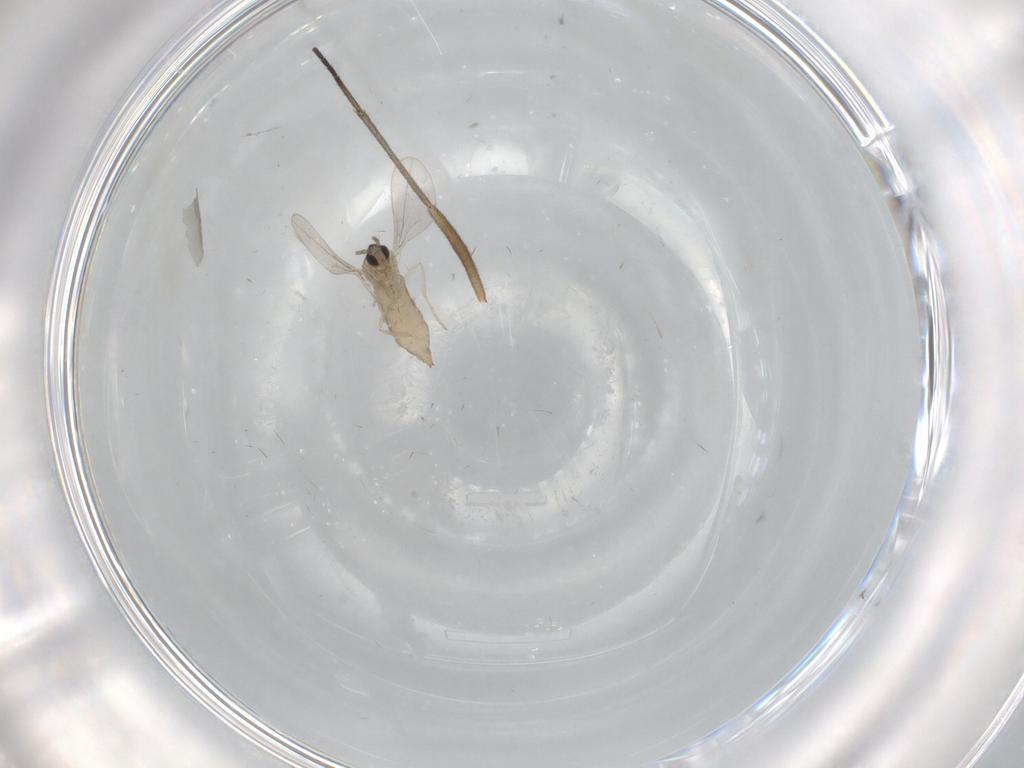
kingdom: Animalia
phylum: Arthropoda
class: Insecta
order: Diptera
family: Cecidomyiidae
